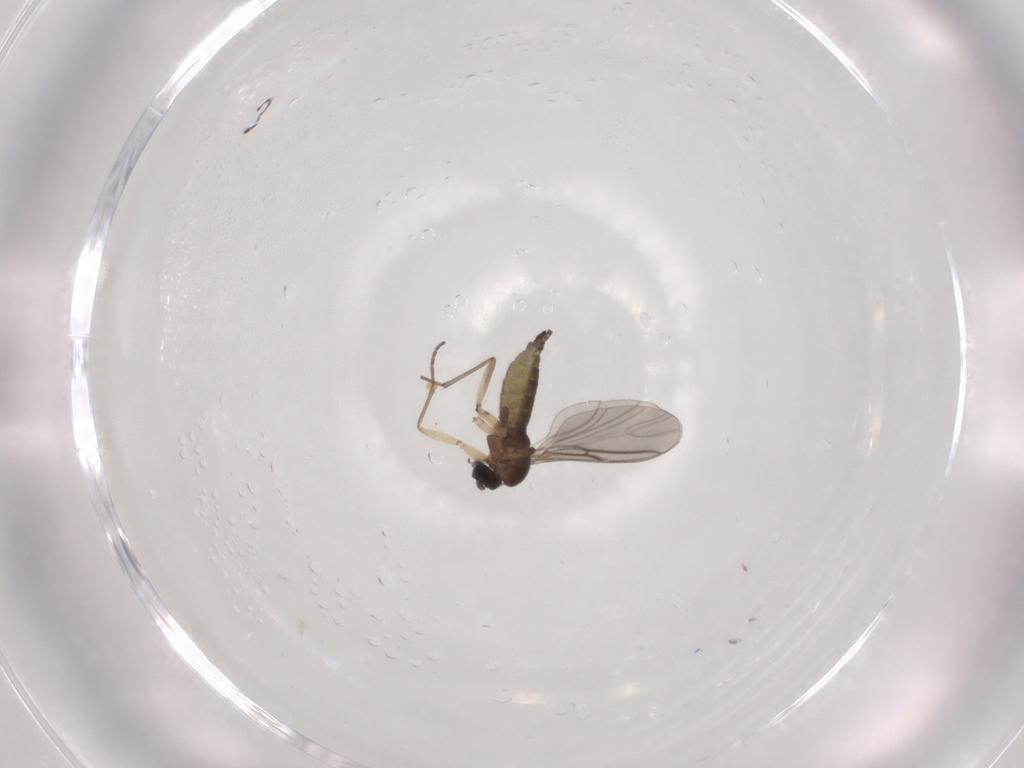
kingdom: Animalia
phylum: Arthropoda
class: Insecta
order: Diptera
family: Sciaridae
